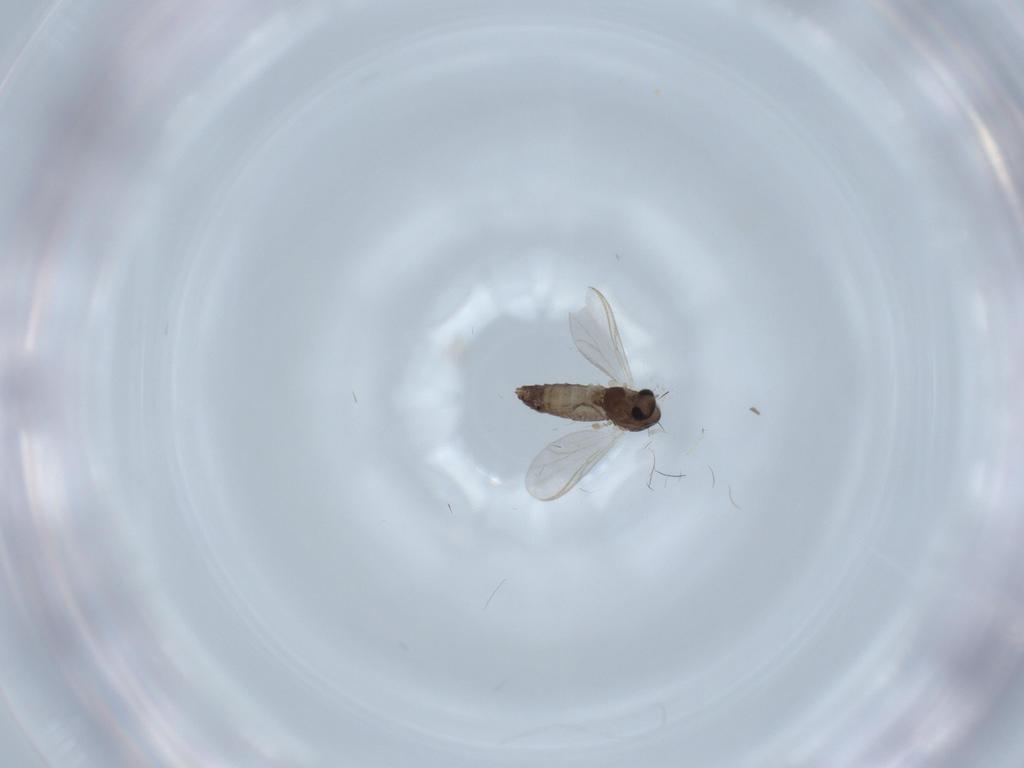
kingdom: Animalia
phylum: Arthropoda
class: Insecta
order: Diptera
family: Chironomidae
